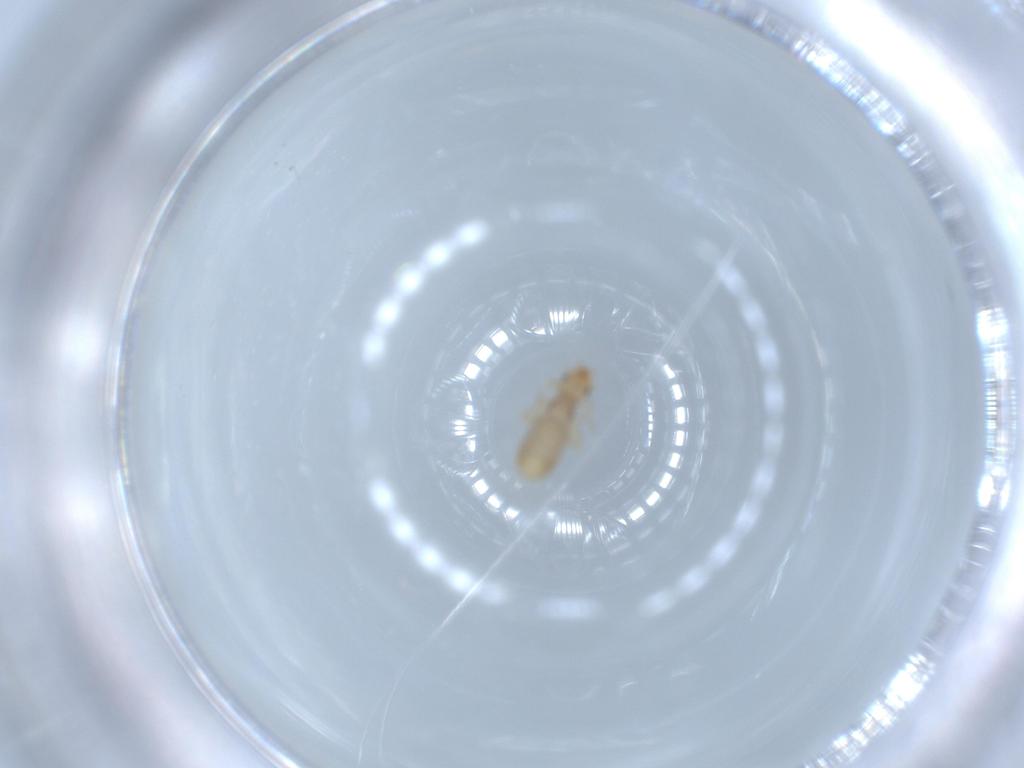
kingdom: Animalia
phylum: Arthropoda
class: Insecta
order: Psocodea
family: Liposcelididae
